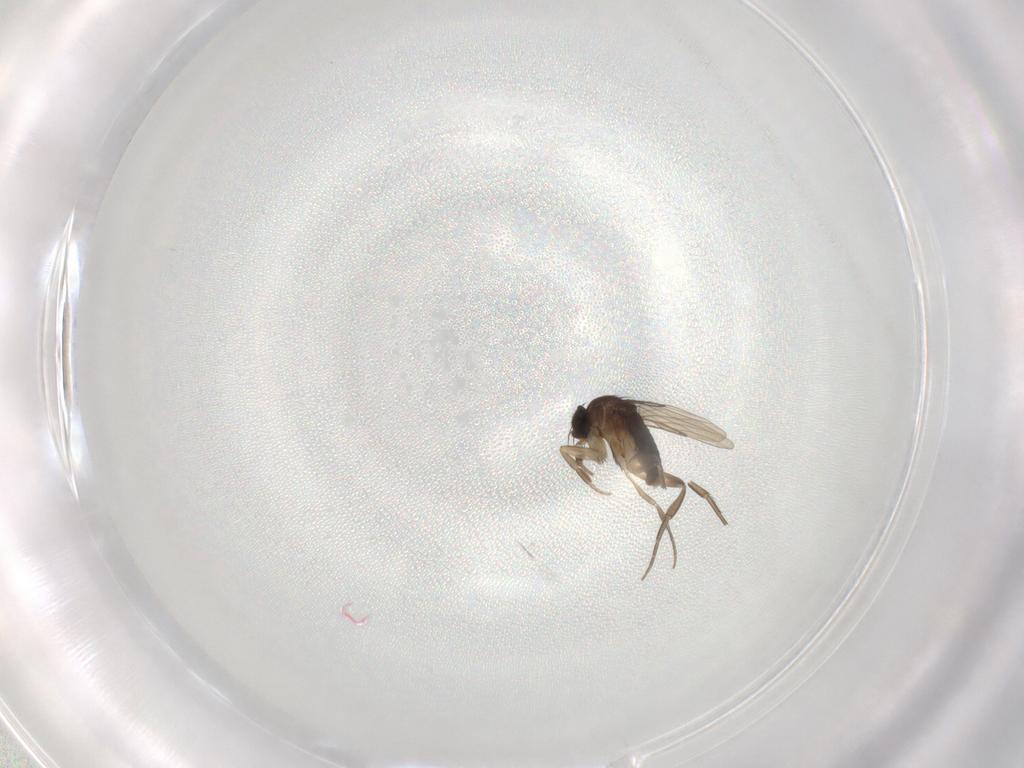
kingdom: Animalia
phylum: Arthropoda
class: Insecta
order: Diptera
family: Phoridae
